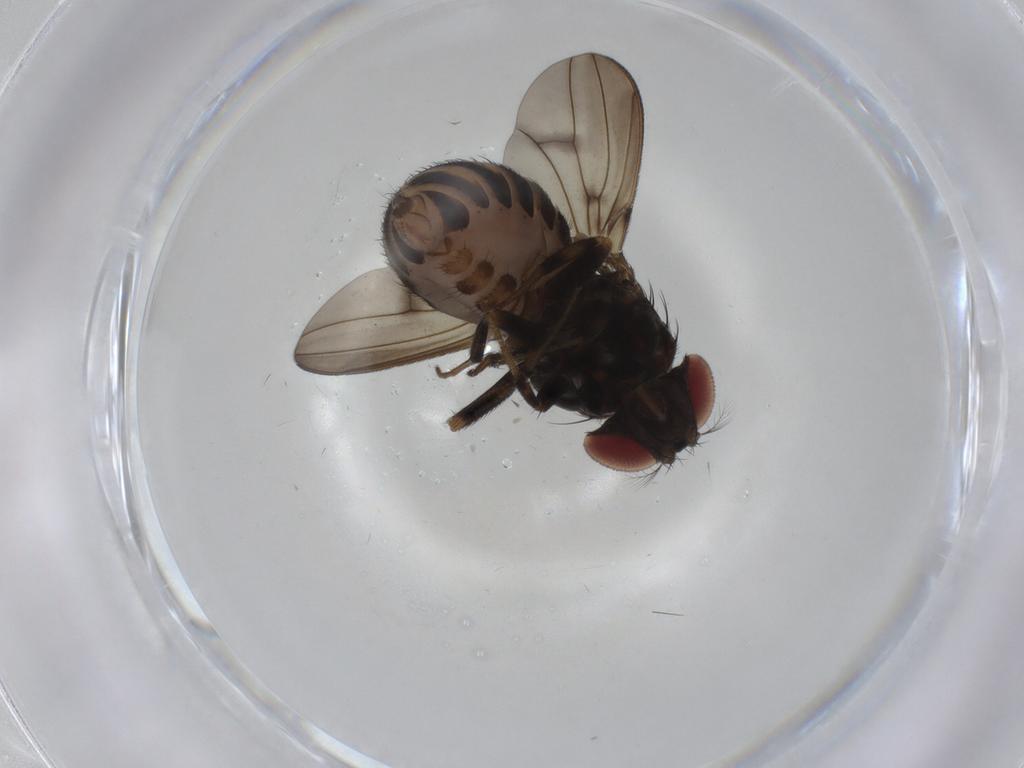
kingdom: Animalia
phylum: Arthropoda
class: Insecta
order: Diptera
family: Drosophilidae
